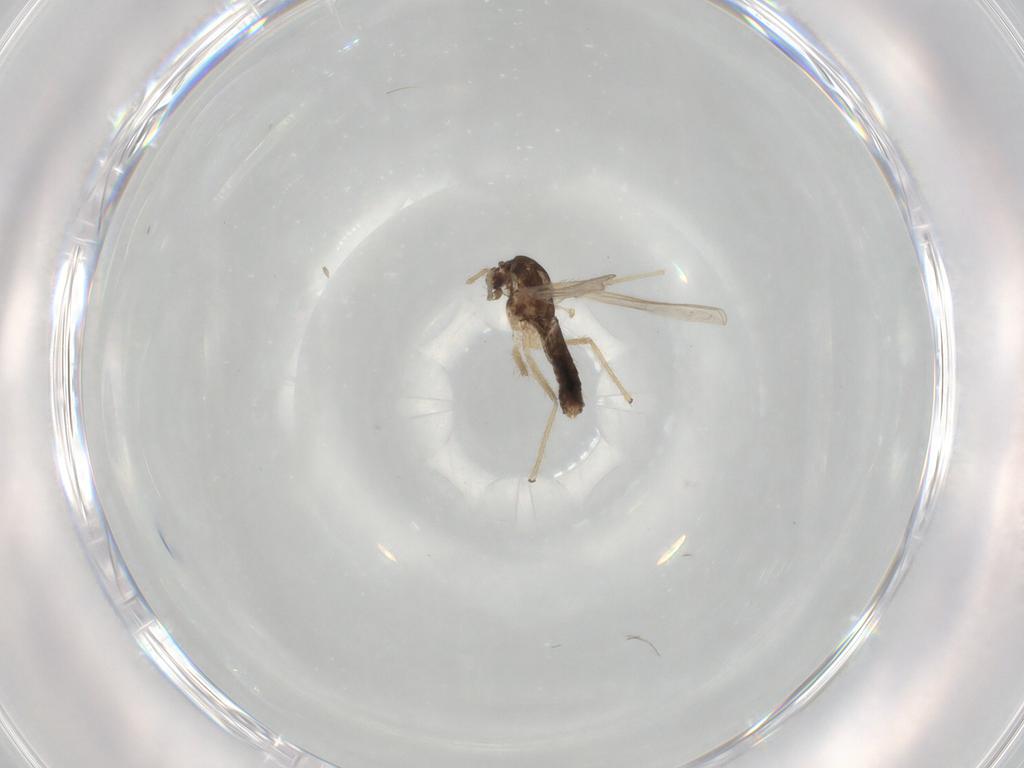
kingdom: Animalia
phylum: Arthropoda
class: Insecta
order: Diptera
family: Chironomidae
